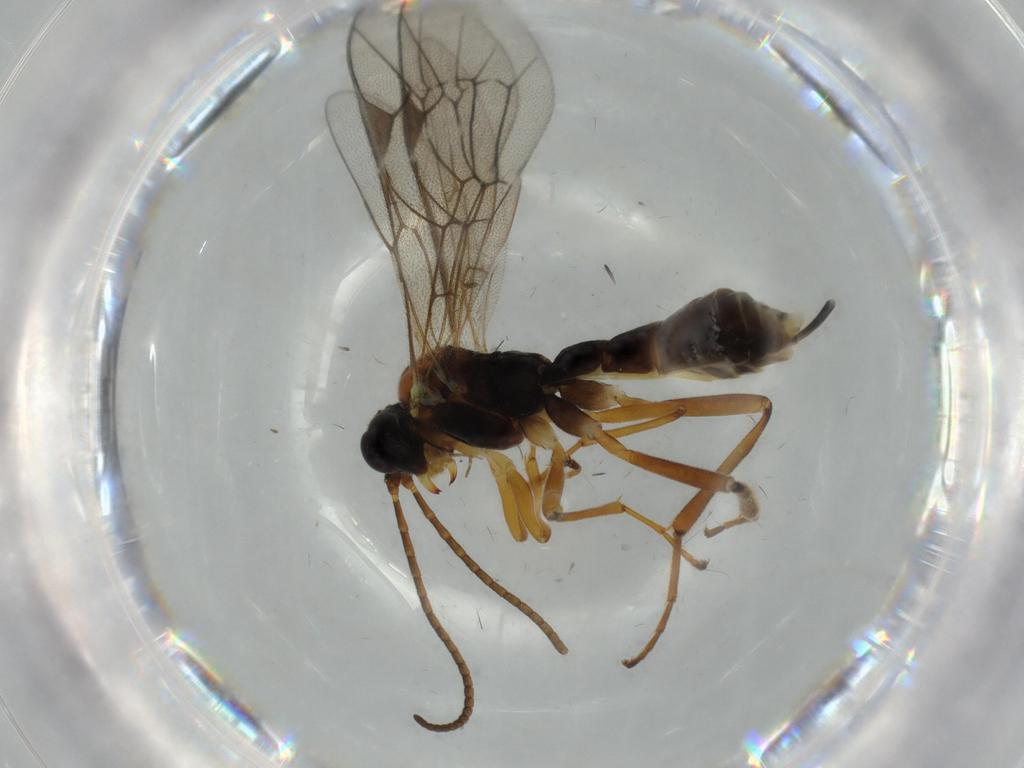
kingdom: Animalia
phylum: Arthropoda
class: Insecta
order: Hymenoptera
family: Ichneumonidae
